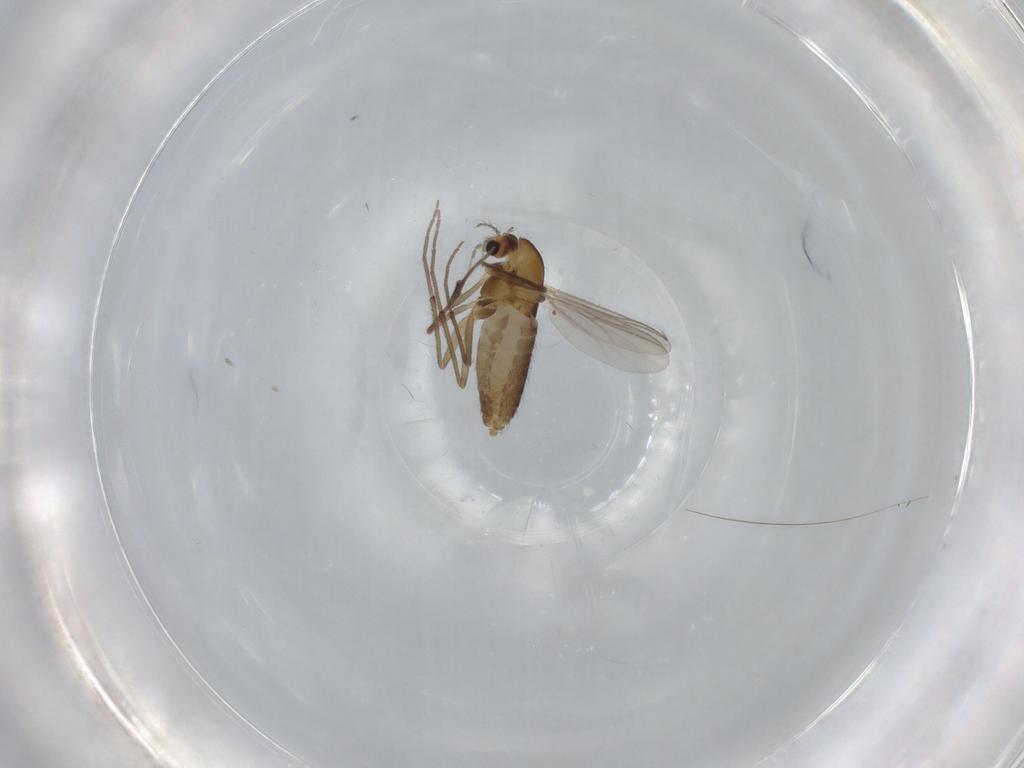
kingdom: Animalia
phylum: Arthropoda
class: Insecta
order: Diptera
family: Chironomidae
